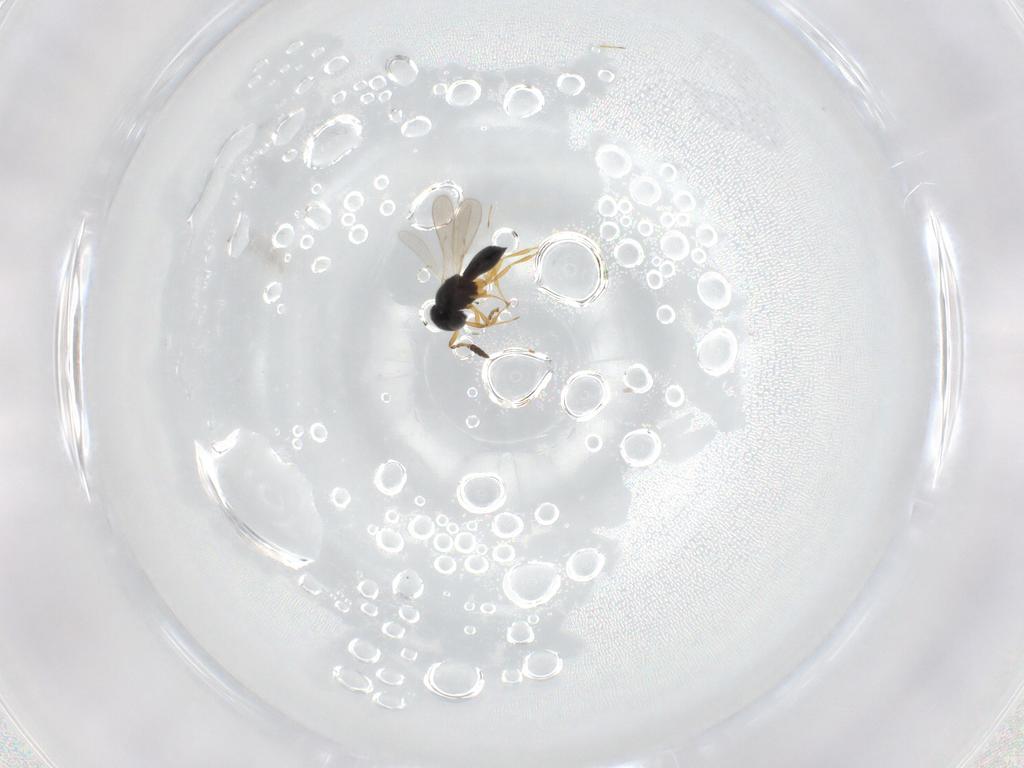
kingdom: Animalia
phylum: Arthropoda
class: Insecta
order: Hymenoptera
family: Scelionidae
